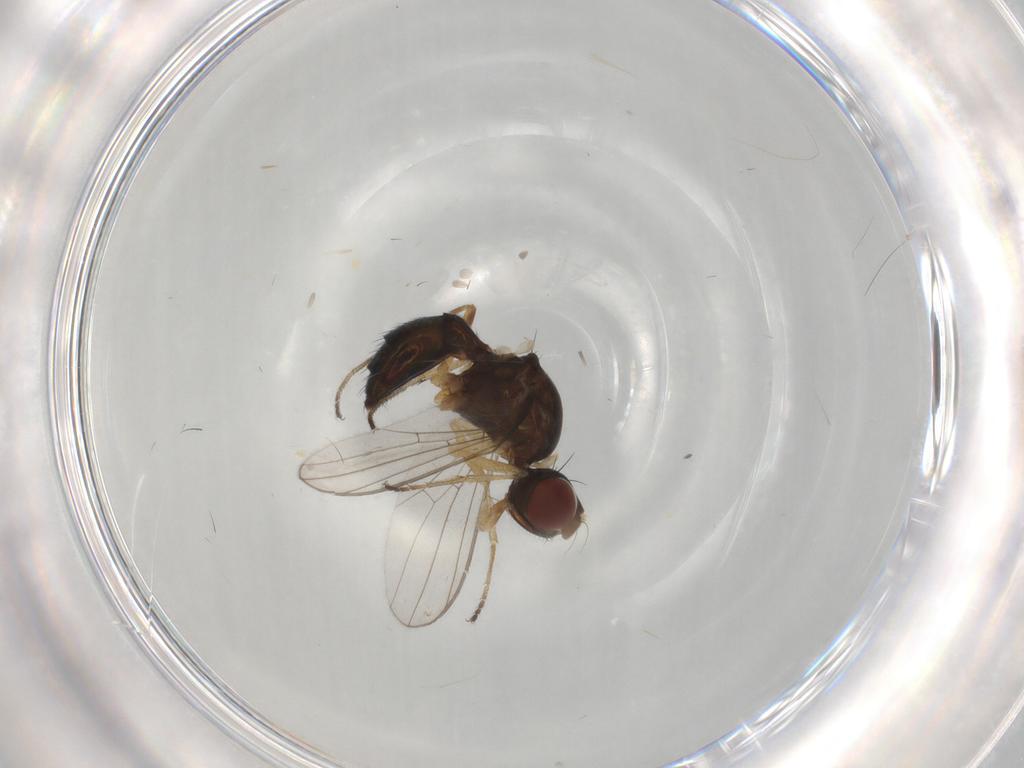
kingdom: Animalia
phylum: Arthropoda
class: Insecta
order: Diptera
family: Sepsidae
